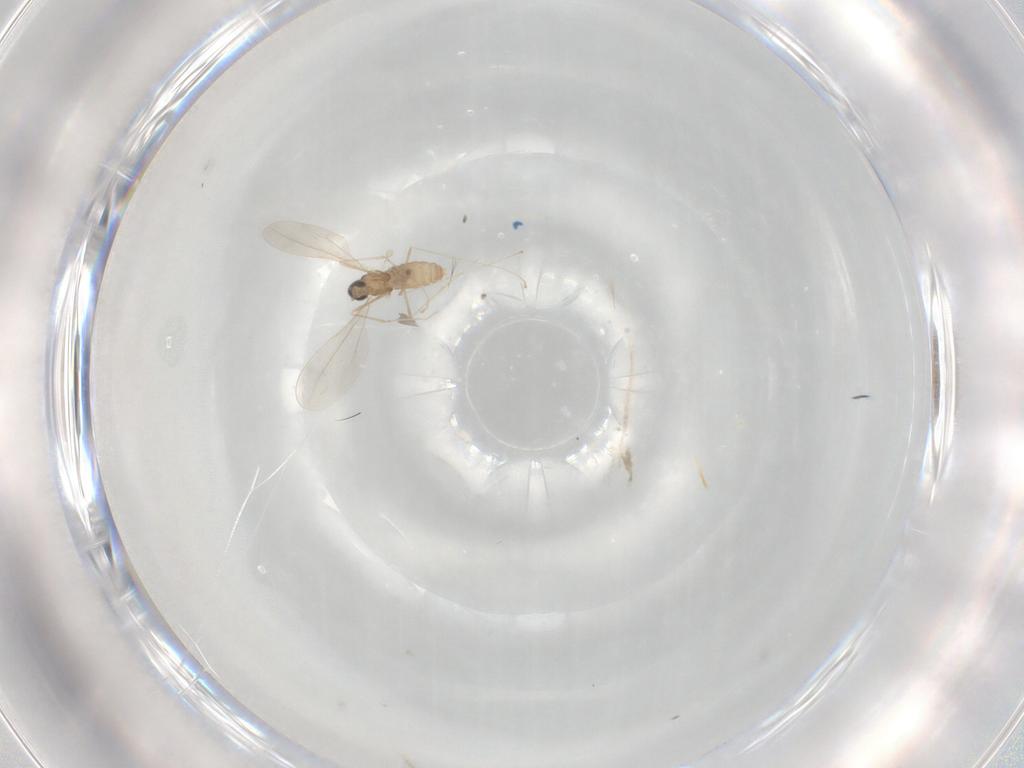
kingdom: Animalia
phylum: Arthropoda
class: Insecta
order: Diptera
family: Cecidomyiidae
